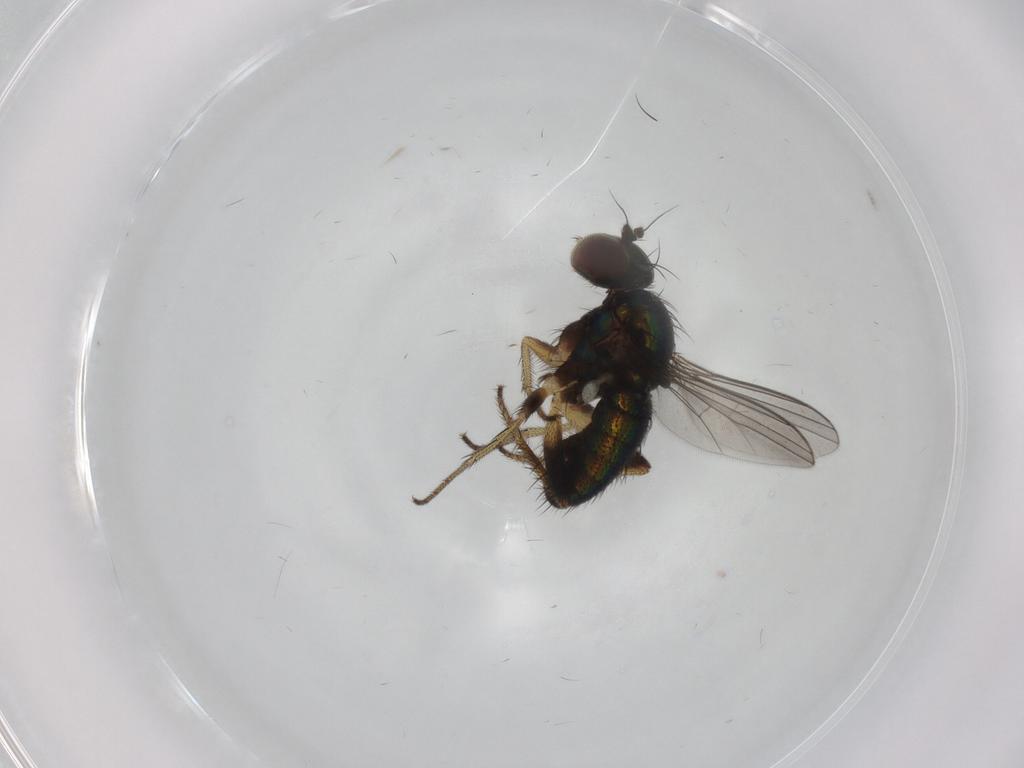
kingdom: Animalia
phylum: Arthropoda
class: Insecta
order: Diptera
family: Dolichopodidae
